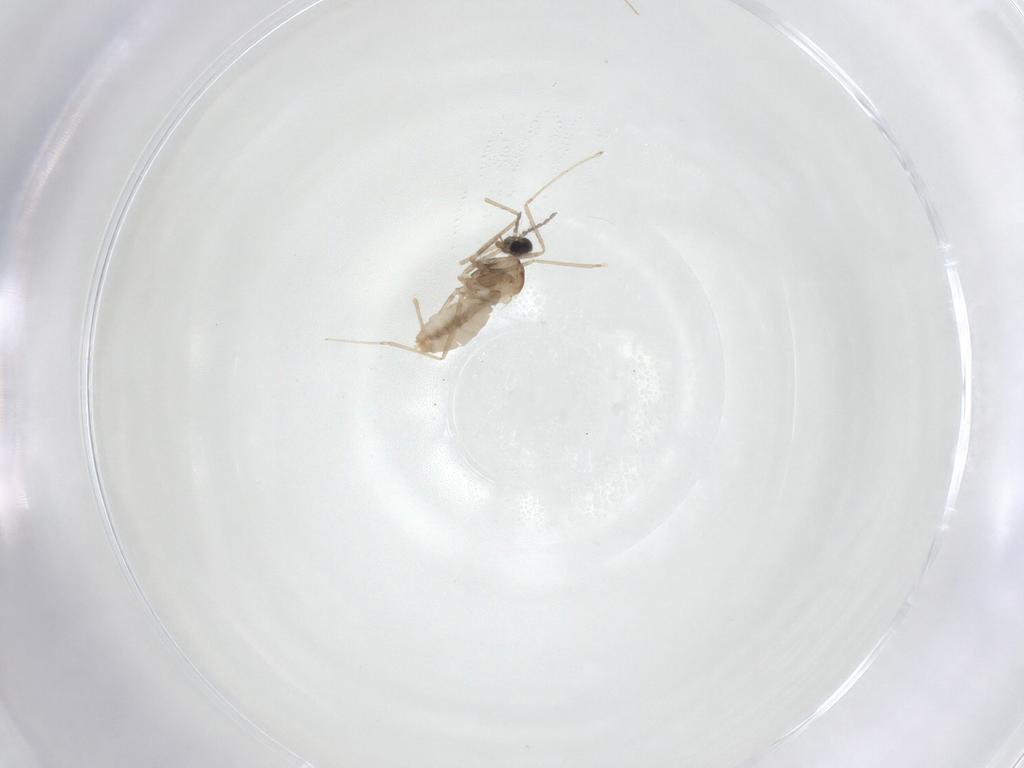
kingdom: Animalia
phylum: Arthropoda
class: Insecta
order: Diptera
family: Cecidomyiidae
